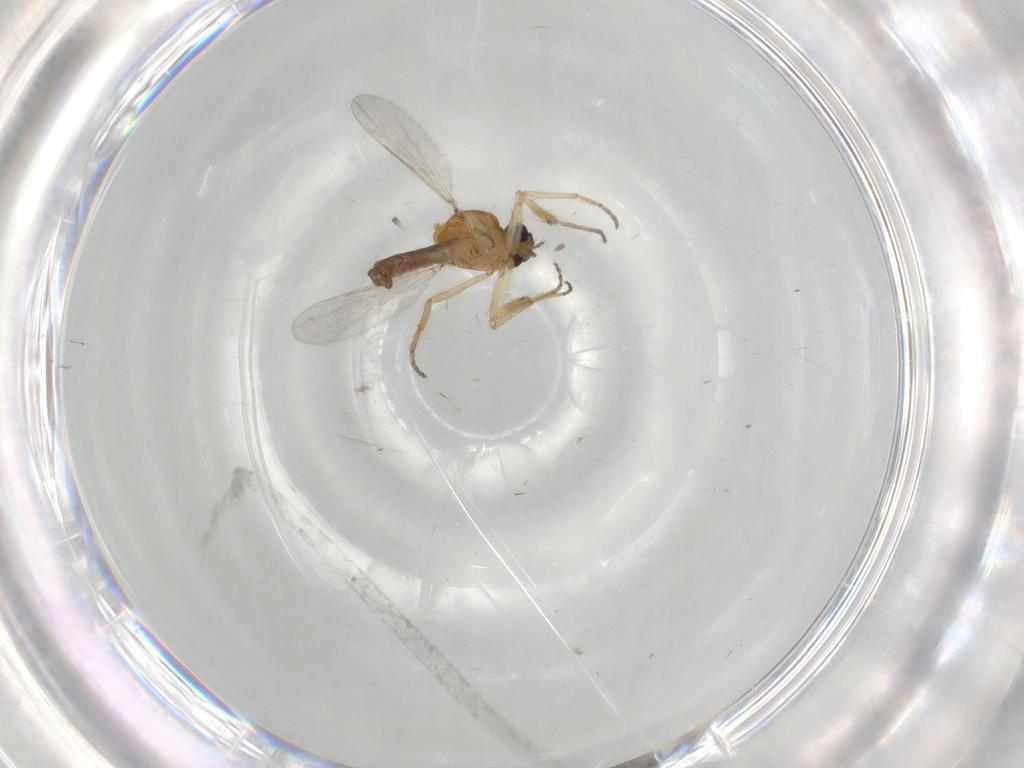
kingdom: Animalia
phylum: Arthropoda
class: Insecta
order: Diptera
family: Ceratopogonidae
